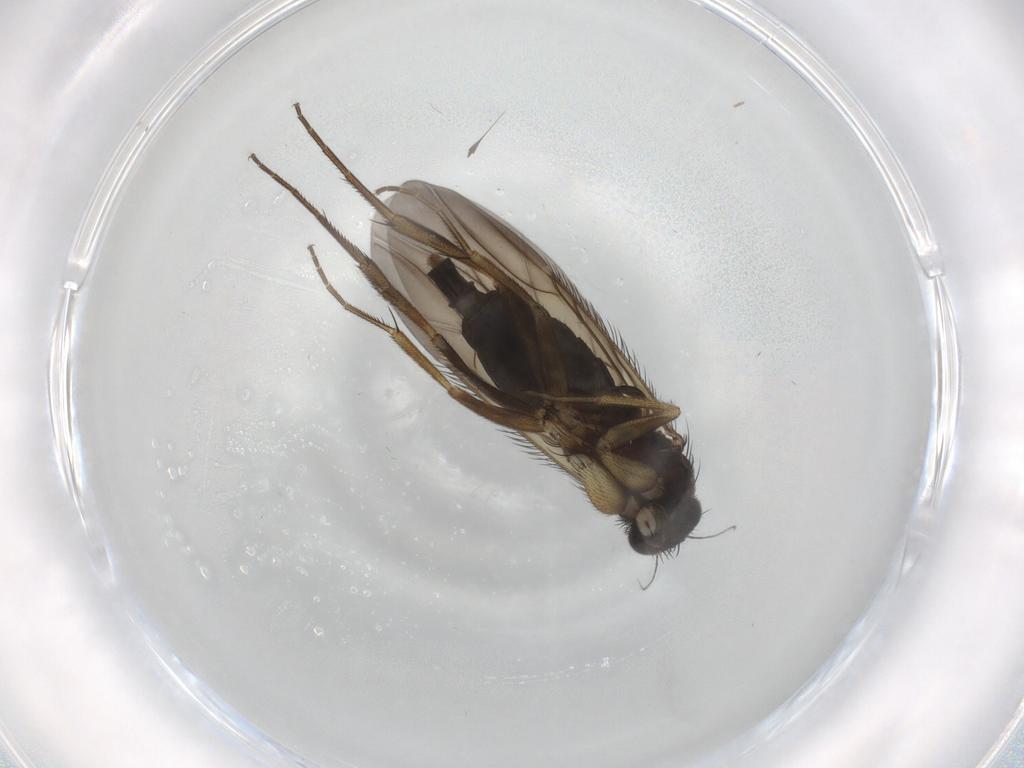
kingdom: Animalia
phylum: Arthropoda
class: Insecta
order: Diptera
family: Phoridae
